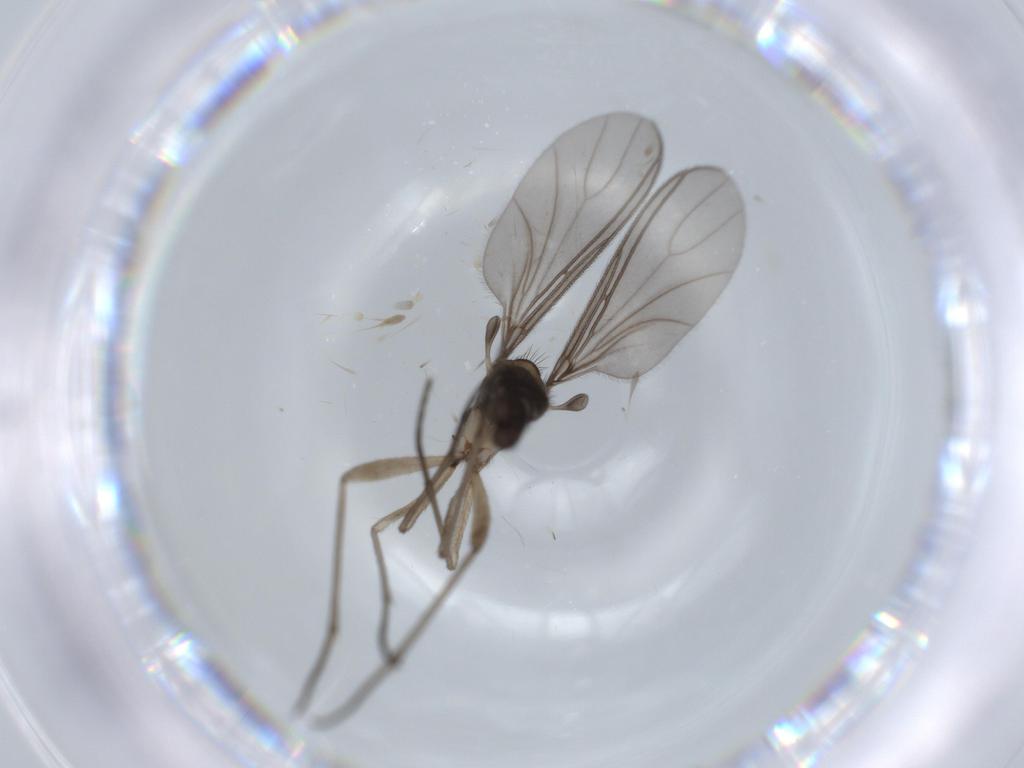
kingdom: Animalia
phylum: Arthropoda
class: Insecta
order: Diptera
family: Sciaridae
